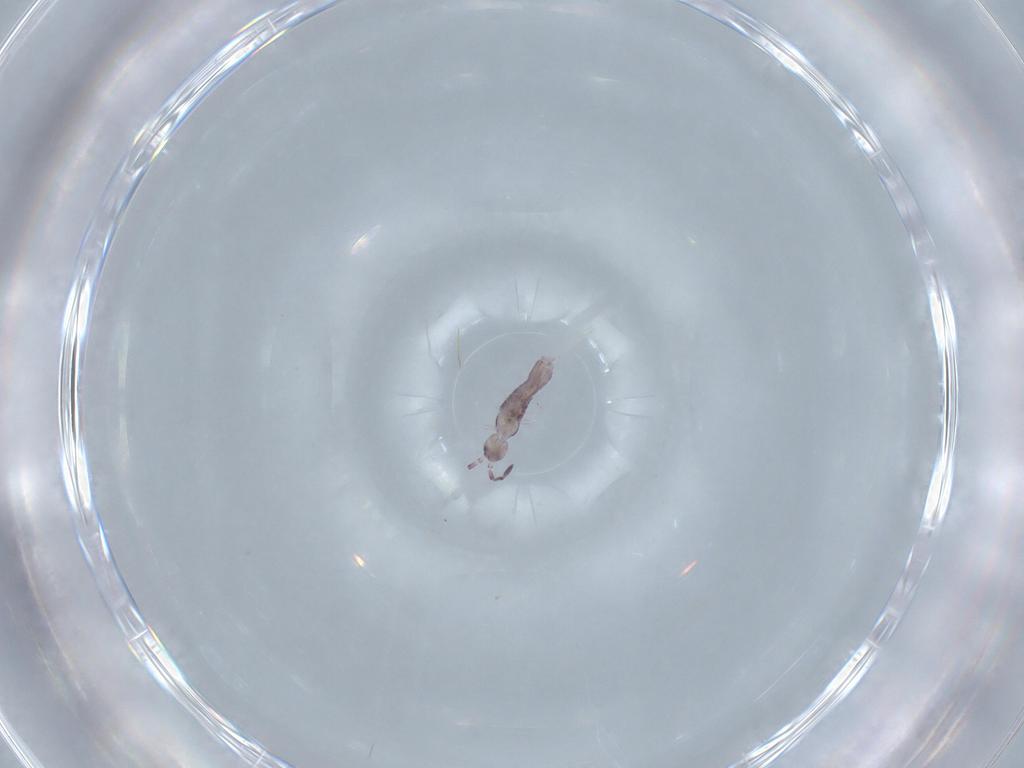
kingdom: Animalia
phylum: Arthropoda
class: Collembola
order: Poduromorpha
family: Hypogastruridae
